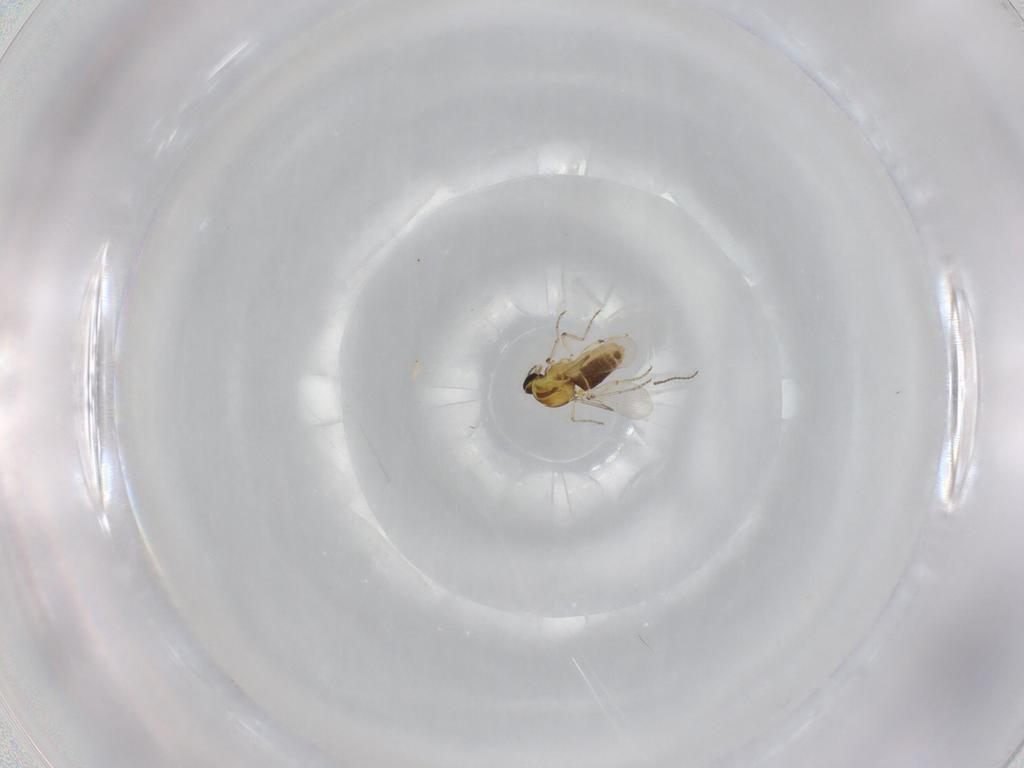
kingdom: Animalia
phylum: Arthropoda
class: Insecta
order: Diptera
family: Ceratopogonidae
